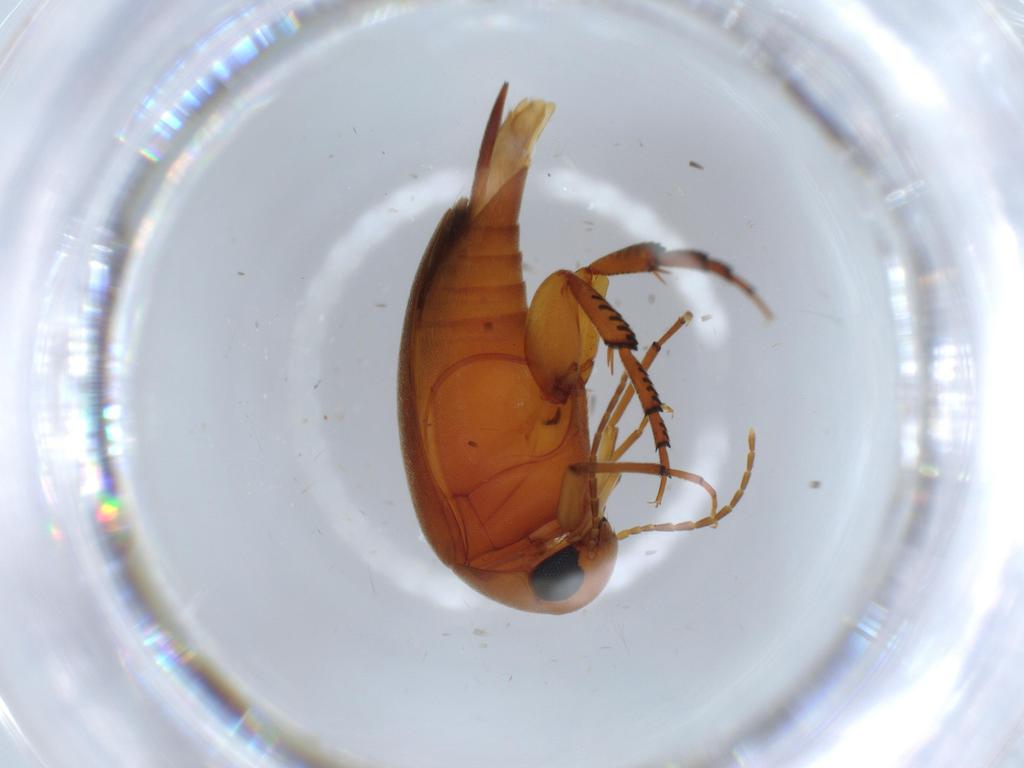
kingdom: Animalia
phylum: Arthropoda
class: Insecta
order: Coleoptera
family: Mordellidae
